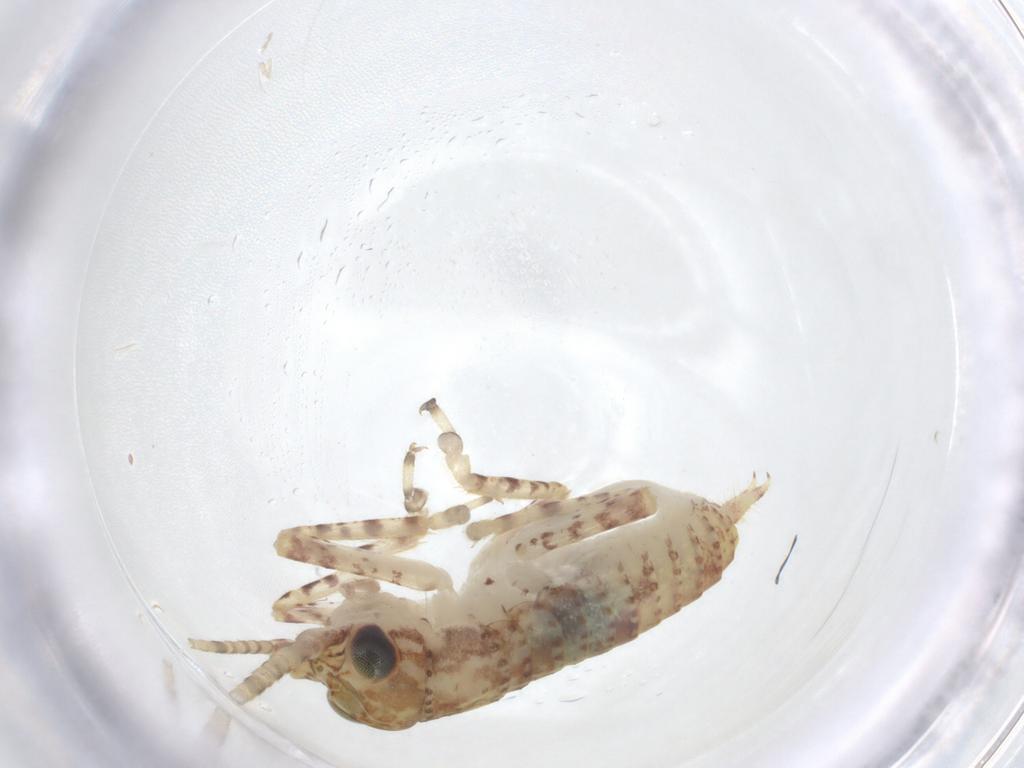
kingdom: Animalia
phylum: Arthropoda
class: Insecta
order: Orthoptera
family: Gryllidae
